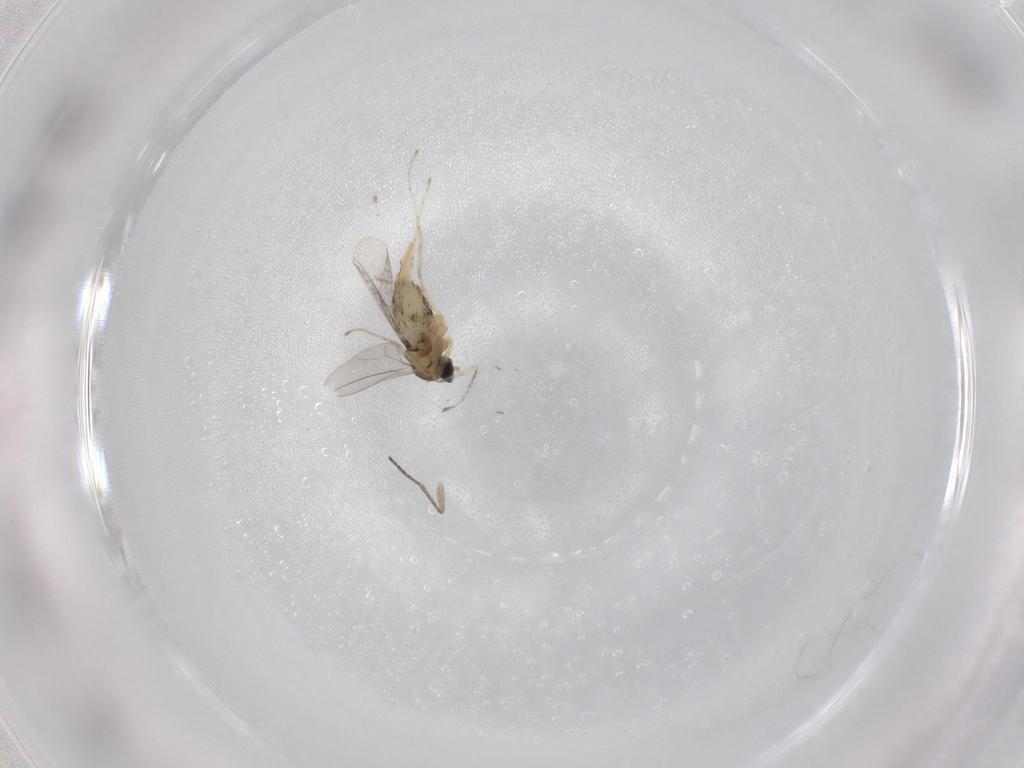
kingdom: Animalia
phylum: Arthropoda
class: Insecta
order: Diptera
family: Cecidomyiidae
